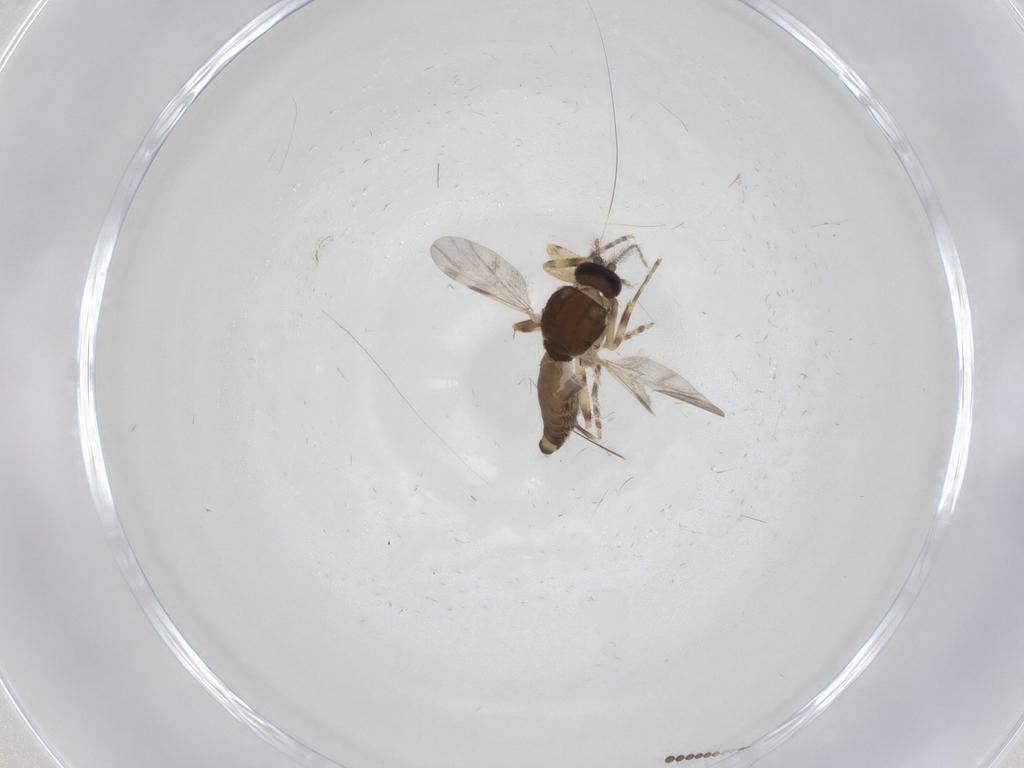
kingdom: Animalia
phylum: Arthropoda
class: Insecta
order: Diptera
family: Ceratopogonidae
